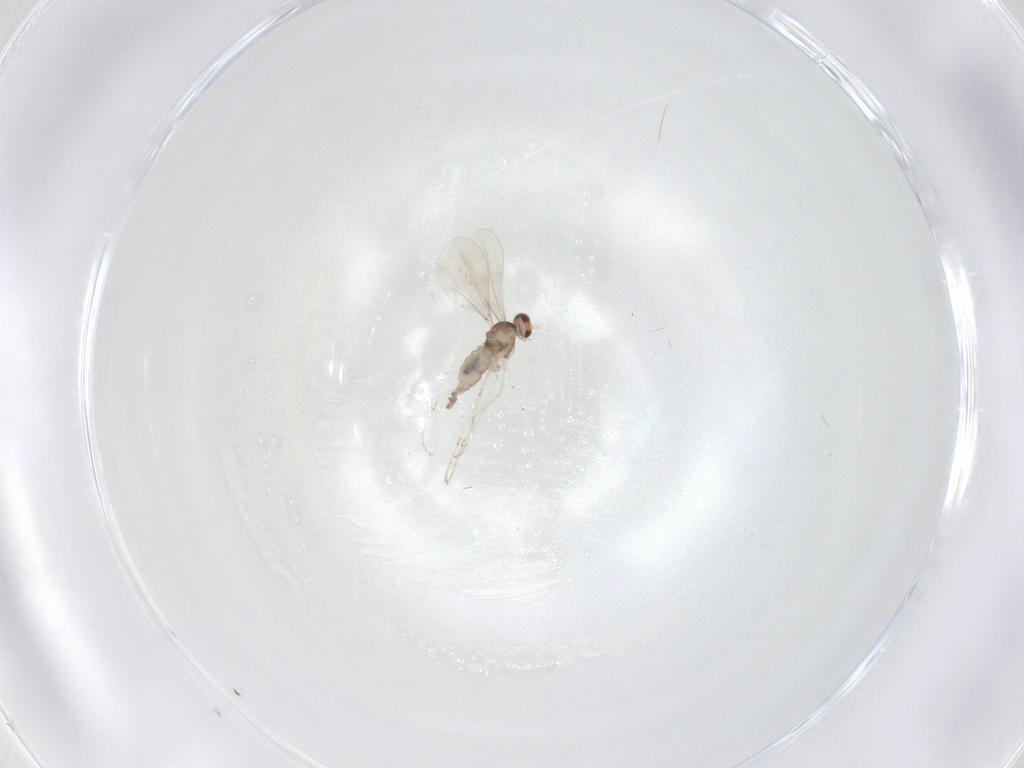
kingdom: Animalia
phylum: Arthropoda
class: Insecta
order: Diptera
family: Cecidomyiidae
